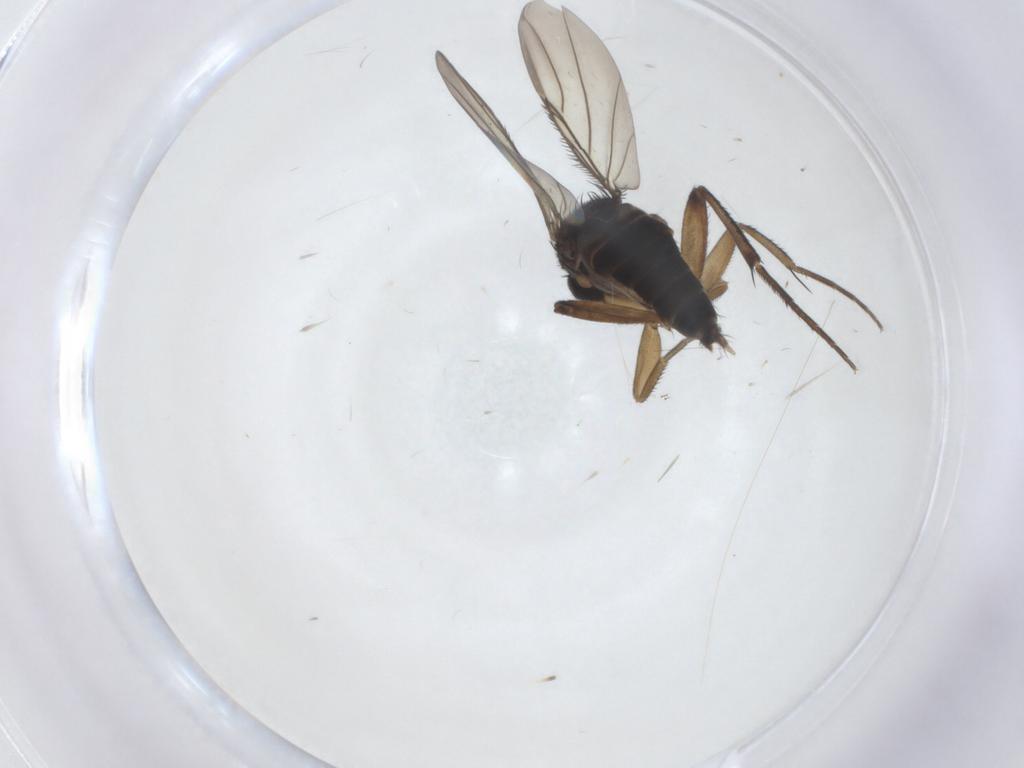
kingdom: Animalia
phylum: Arthropoda
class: Insecta
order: Diptera
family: Phoridae
